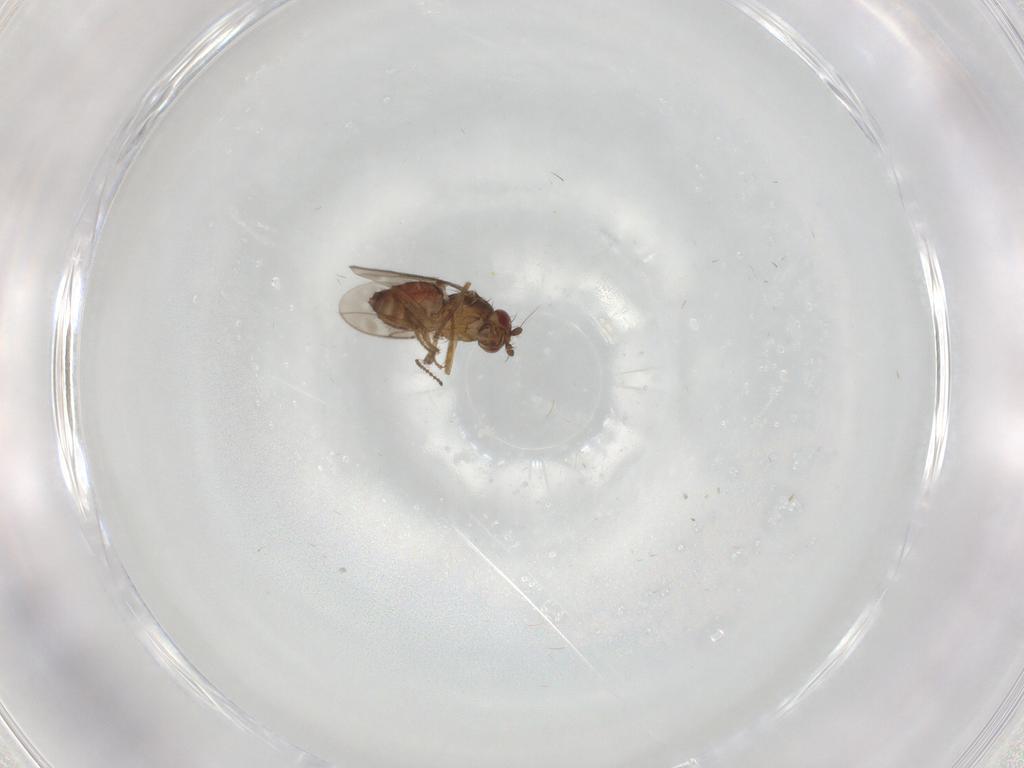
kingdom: Animalia
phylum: Arthropoda
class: Insecta
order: Diptera
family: Sphaeroceridae
